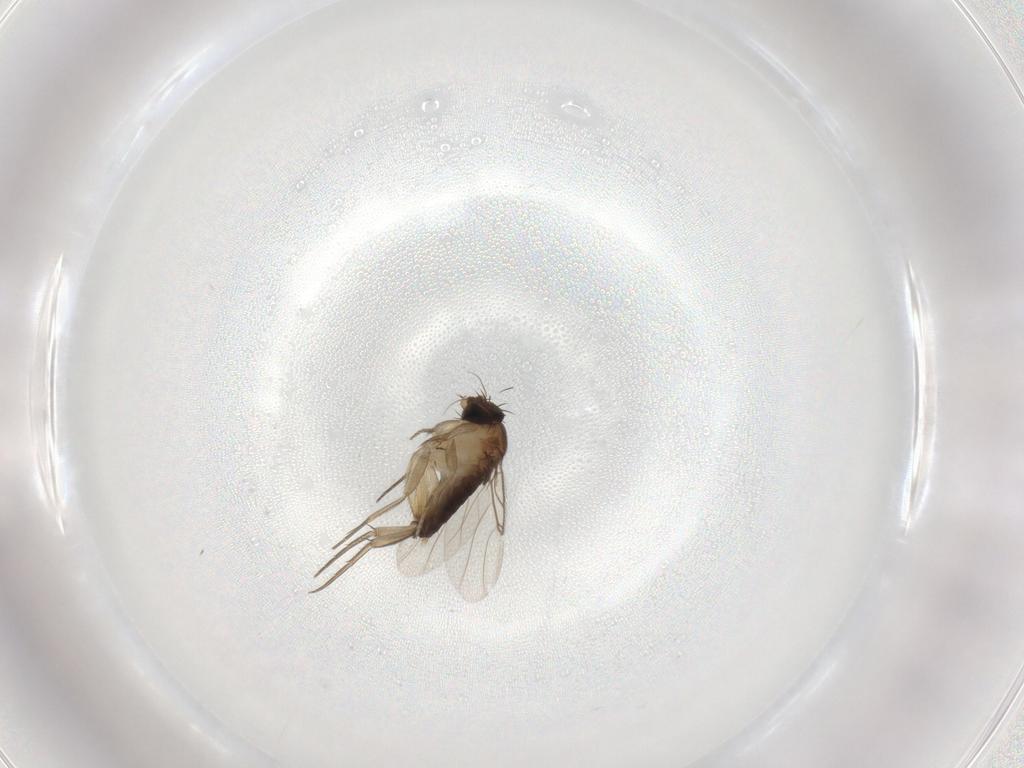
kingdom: Animalia
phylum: Arthropoda
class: Insecta
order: Diptera
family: Phoridae
